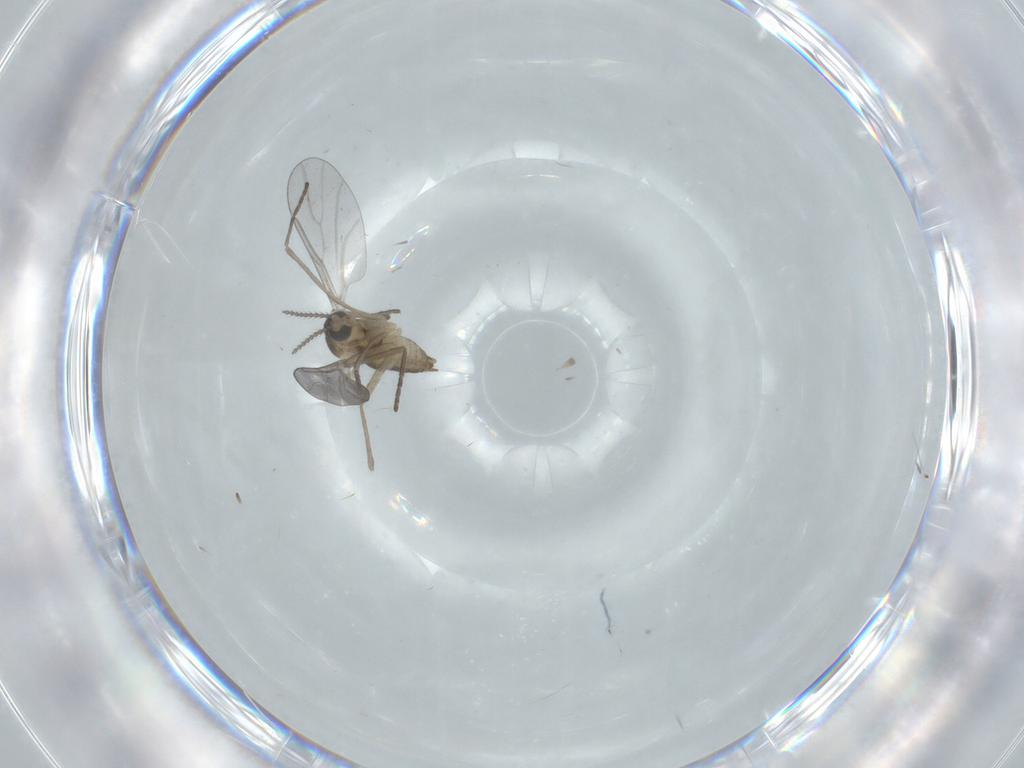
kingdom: Animalia
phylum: Arthropoda
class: Insecta
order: Diptera
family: Cecidomyiidae
